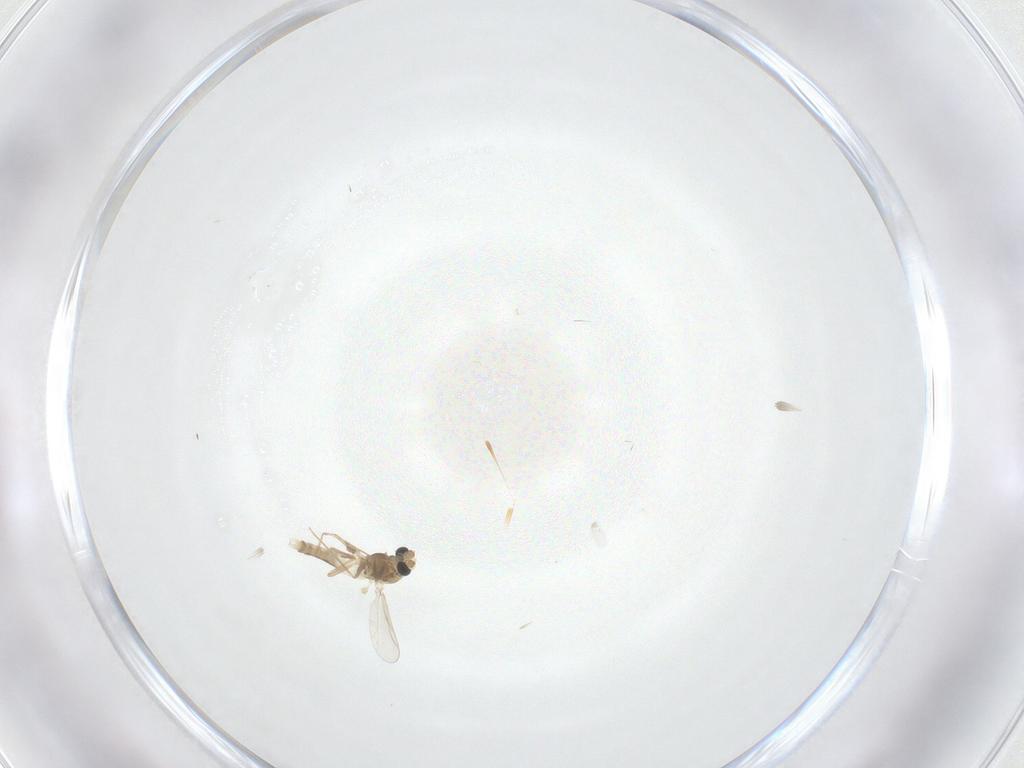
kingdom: Animalia
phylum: Arthropoda
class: Insecta
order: Diptera
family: Chironomidae
